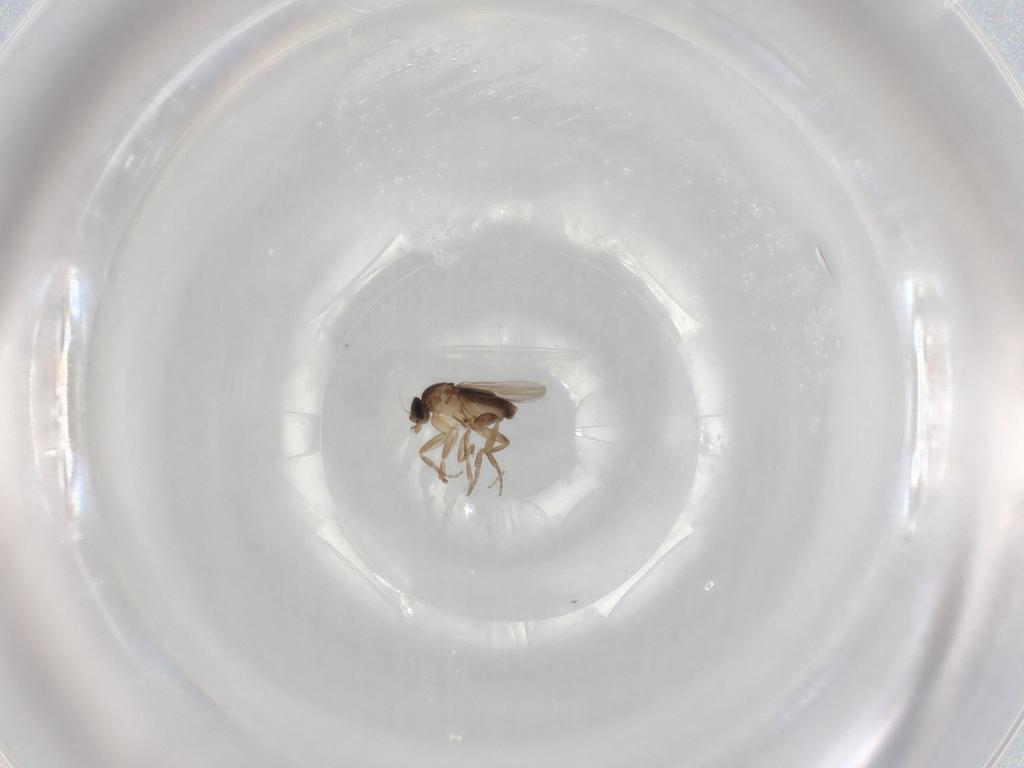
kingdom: Animalia
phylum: Arthropoda
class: Insecta
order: Diptera
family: Phoridae
